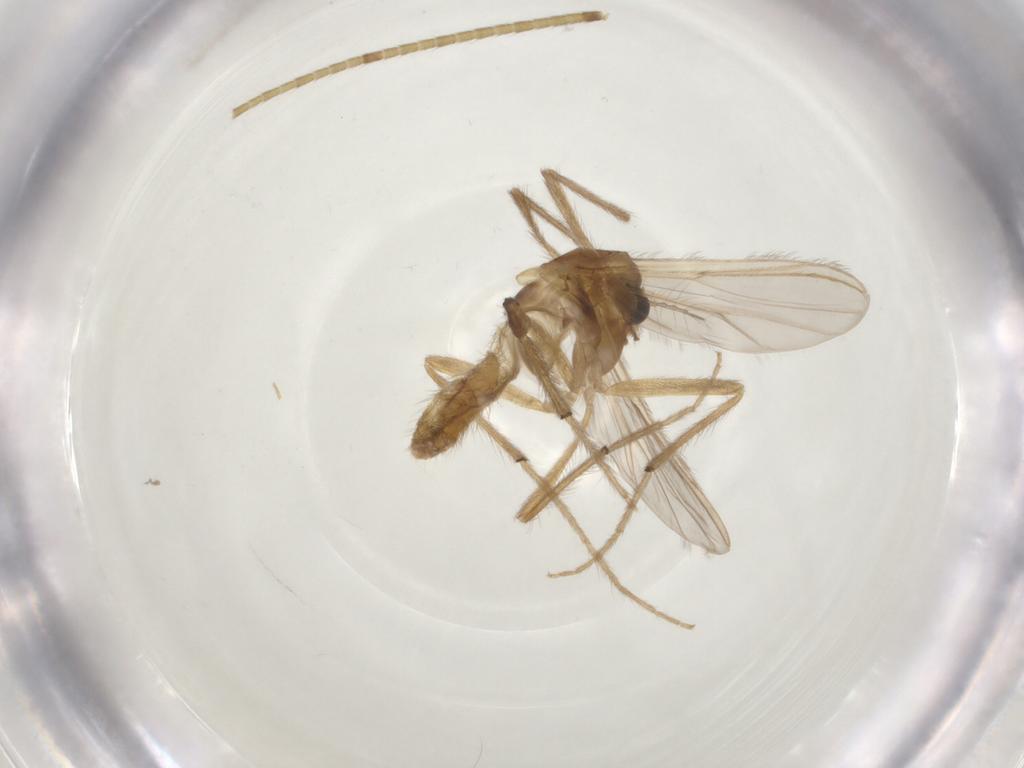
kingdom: Animalia
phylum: Arthropoda
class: Insecta
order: Diptera
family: Chironomidae
